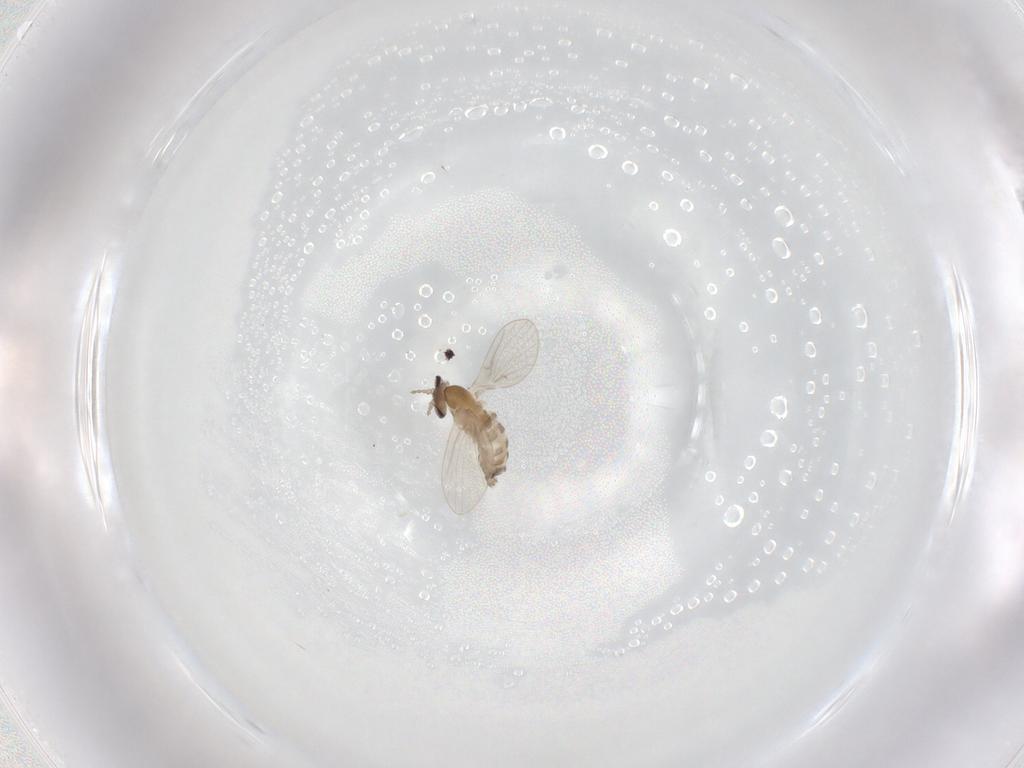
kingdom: Animalia
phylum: Arthropoda
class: Insecta
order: Diptera
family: Psychodidae
